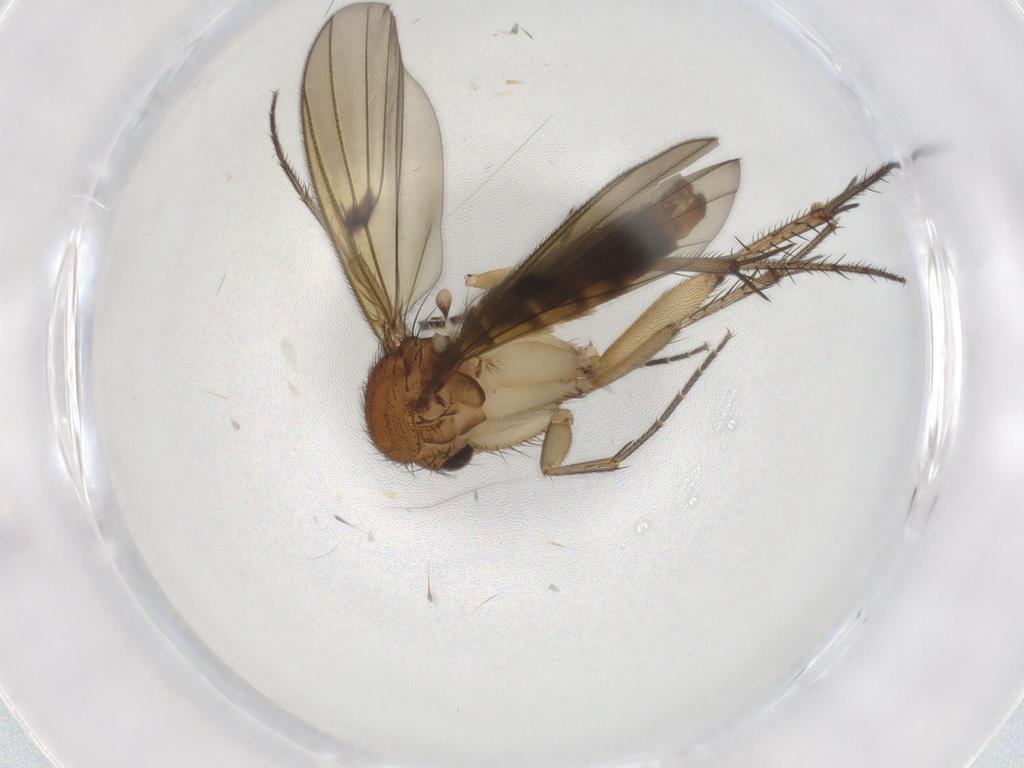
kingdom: Animalia
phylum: Arthropoda
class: Insecta
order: Diptera
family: Mycetophilidae
